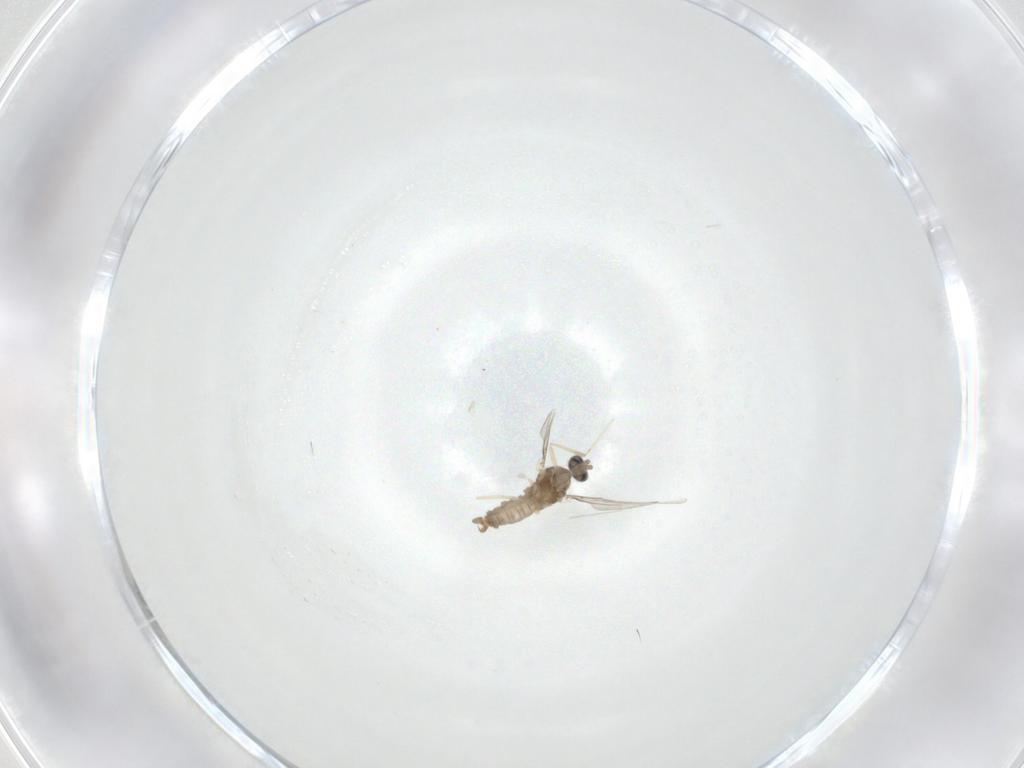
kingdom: Animalia
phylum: Arthropoda
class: Insecta
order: Diptera
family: Cecidomyiidae
